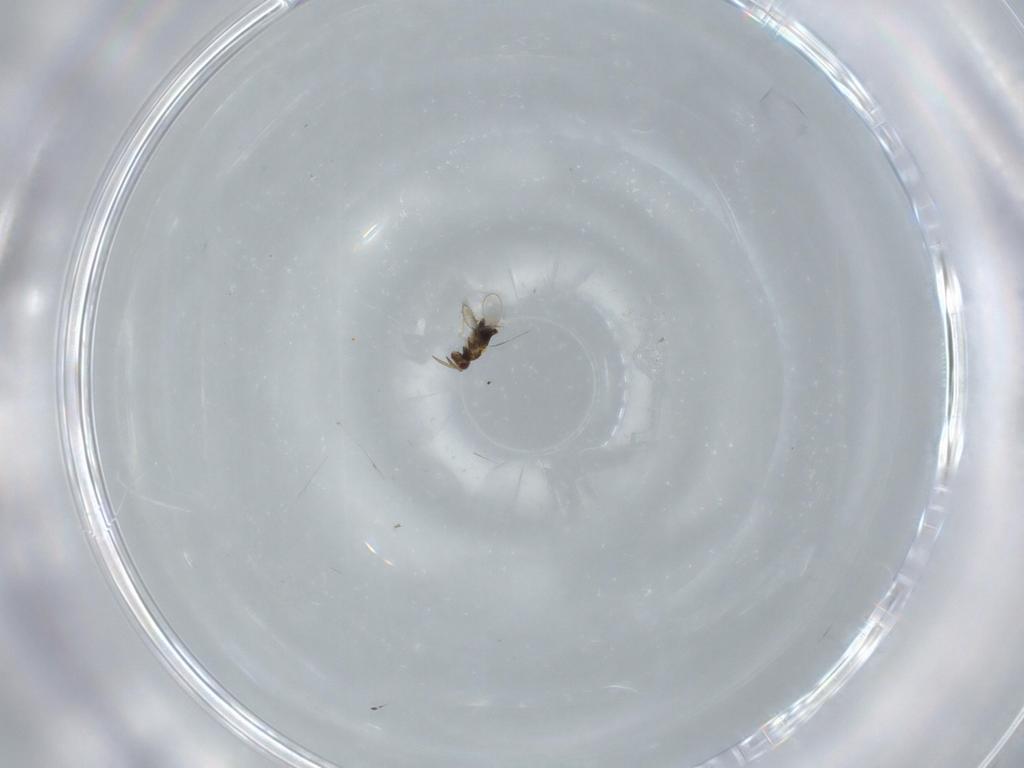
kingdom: Animalia
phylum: Arthropoda
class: Insecta
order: Hymenoptera
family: Aphelinidae
